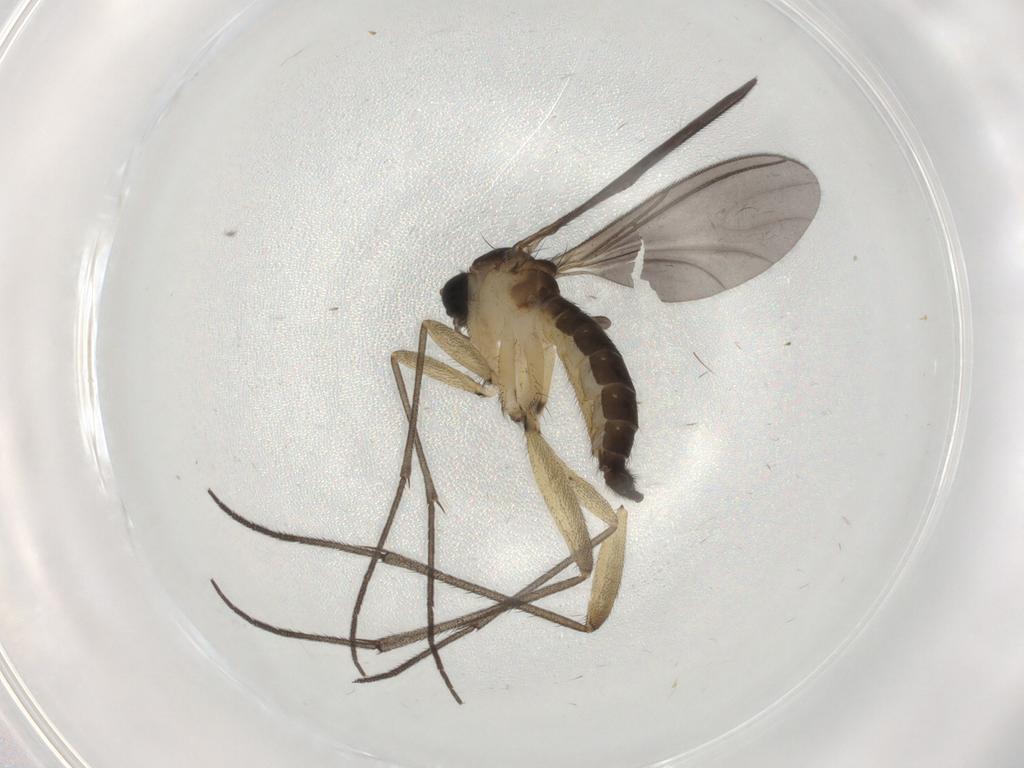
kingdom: Animalia
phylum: Arthropoda
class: Insecta
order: Diptera
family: Sciaridae
